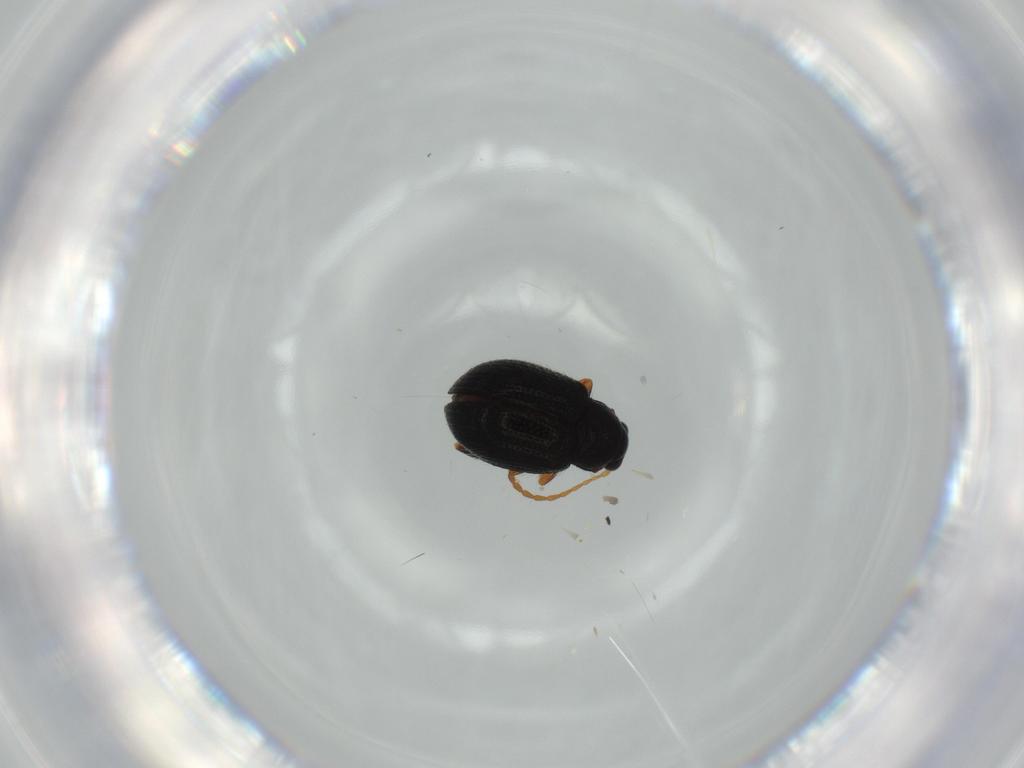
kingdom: Animalia
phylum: Arthropoda
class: Insecta
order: Coleoptera
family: Chrysomelidae
